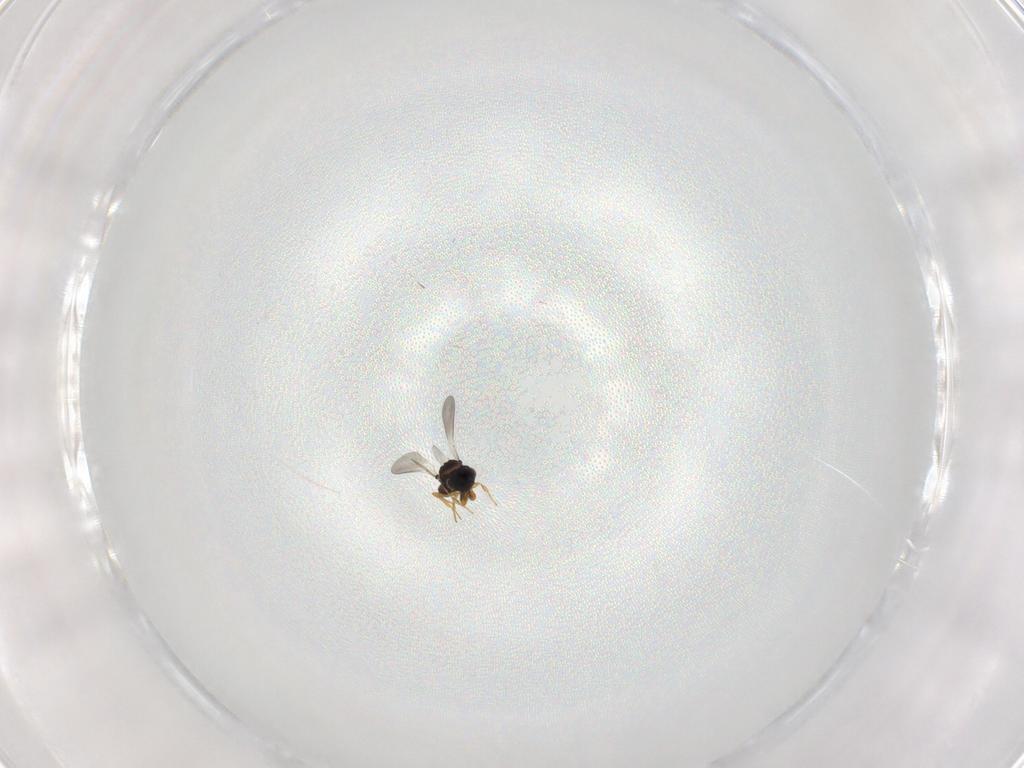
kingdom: Animalia
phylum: Arthropoda
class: Insecta
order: Hymenoptera
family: Platygastridae
